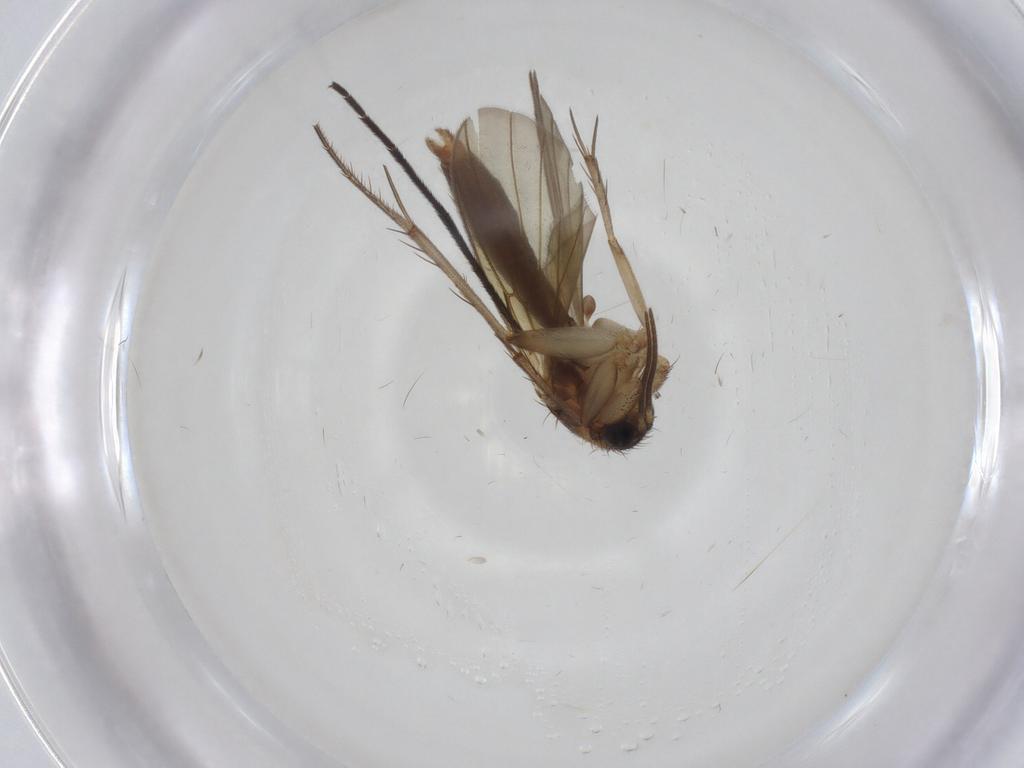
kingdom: Animalia
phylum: Arthropoda
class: Insecta
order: Diptera
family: Mycetophilidae
